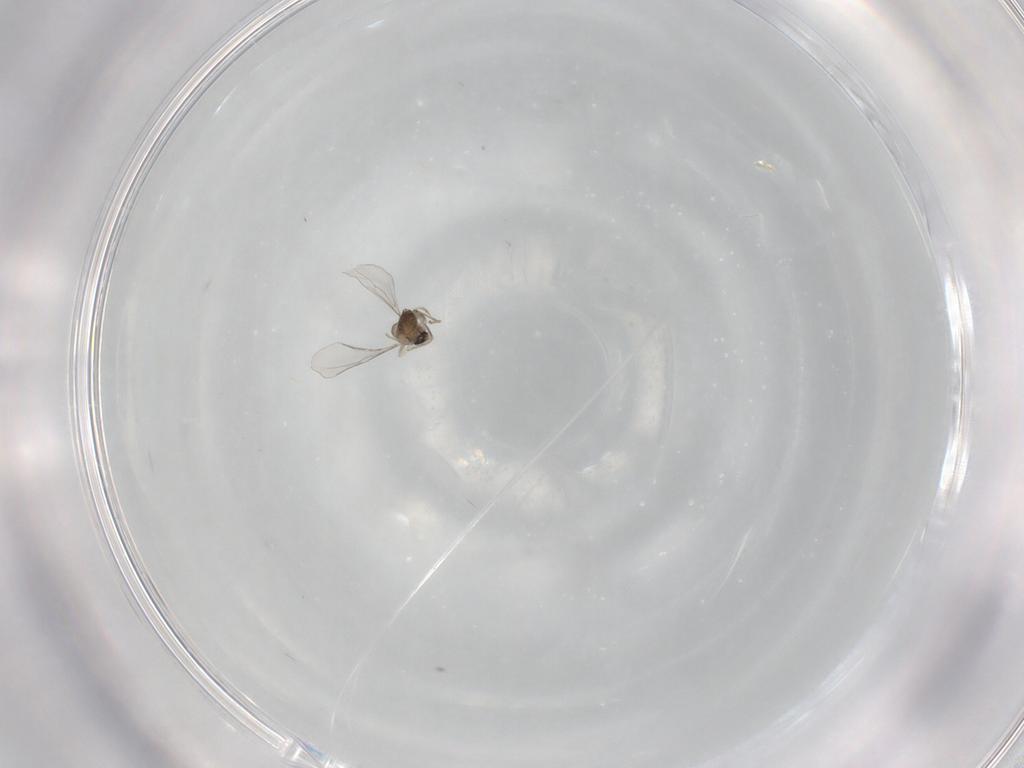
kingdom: Animalia
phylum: Arthropoda
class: Insecta
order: Diptera
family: Cecidomyiidae
